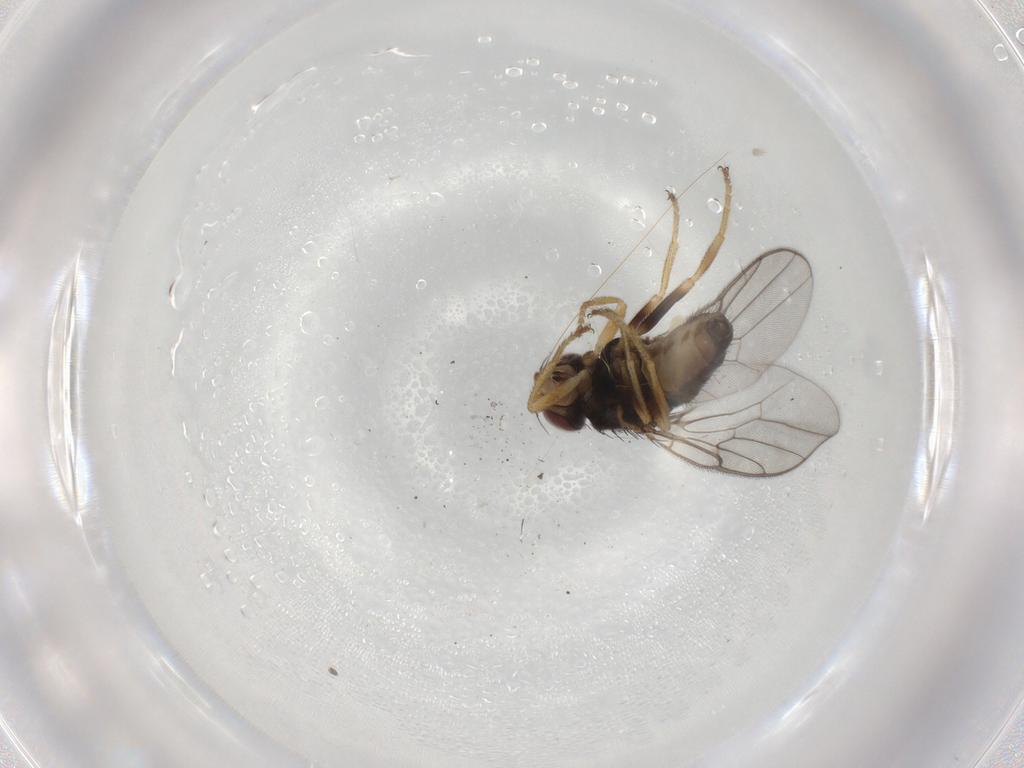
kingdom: Animalia
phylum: Arthropoda
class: Insecta
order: Diptera
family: Chloropidae
